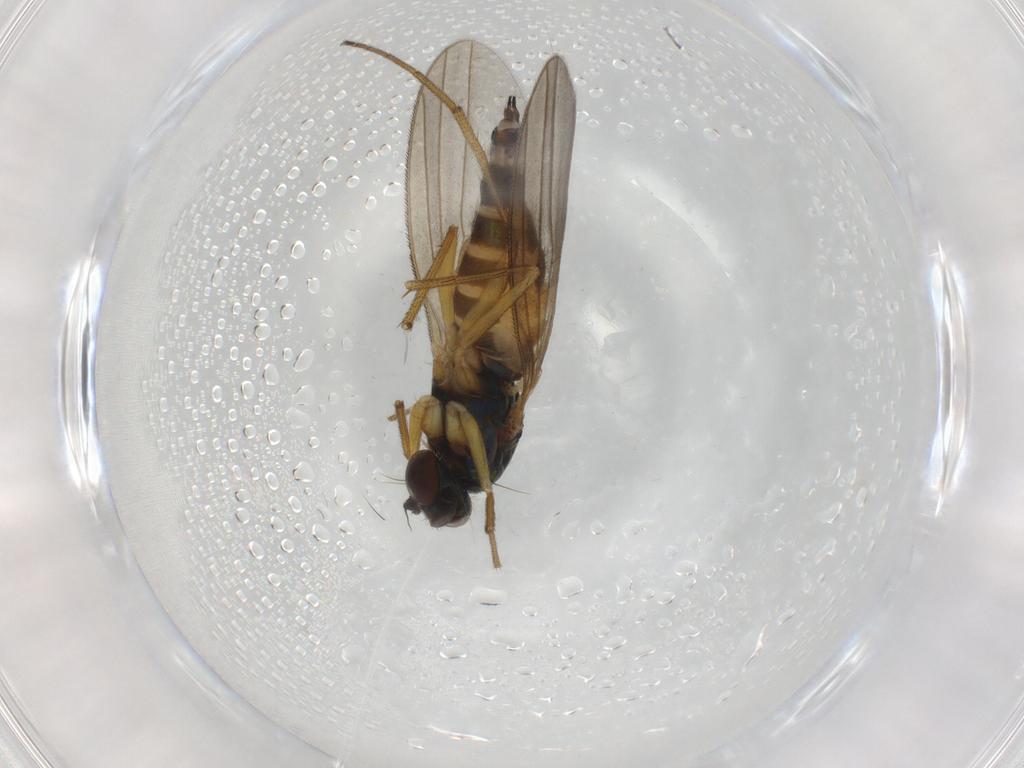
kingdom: Animalia
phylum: Arthropoda
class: Insecta
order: Diptera
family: Dolichopodidae
